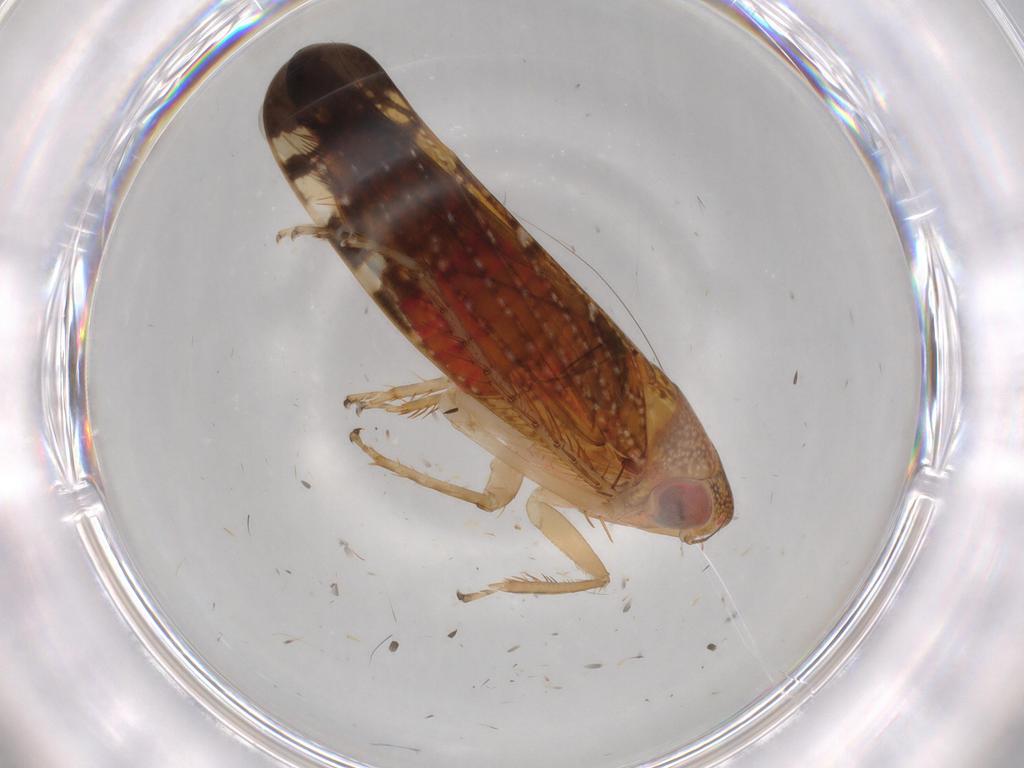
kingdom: Animalia
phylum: Arthropoda
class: Insecta
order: Hemiptera
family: Cicadellidae
